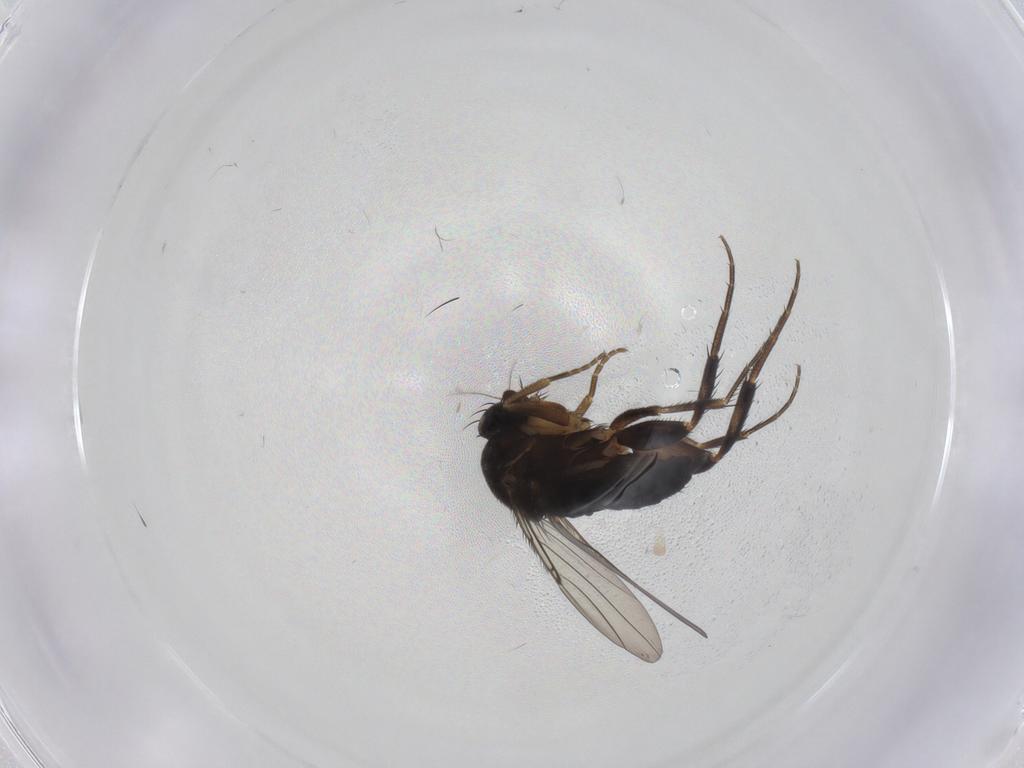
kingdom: Animalia
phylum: Arthropoda
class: Insecta
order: Diptera
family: Phoridae
